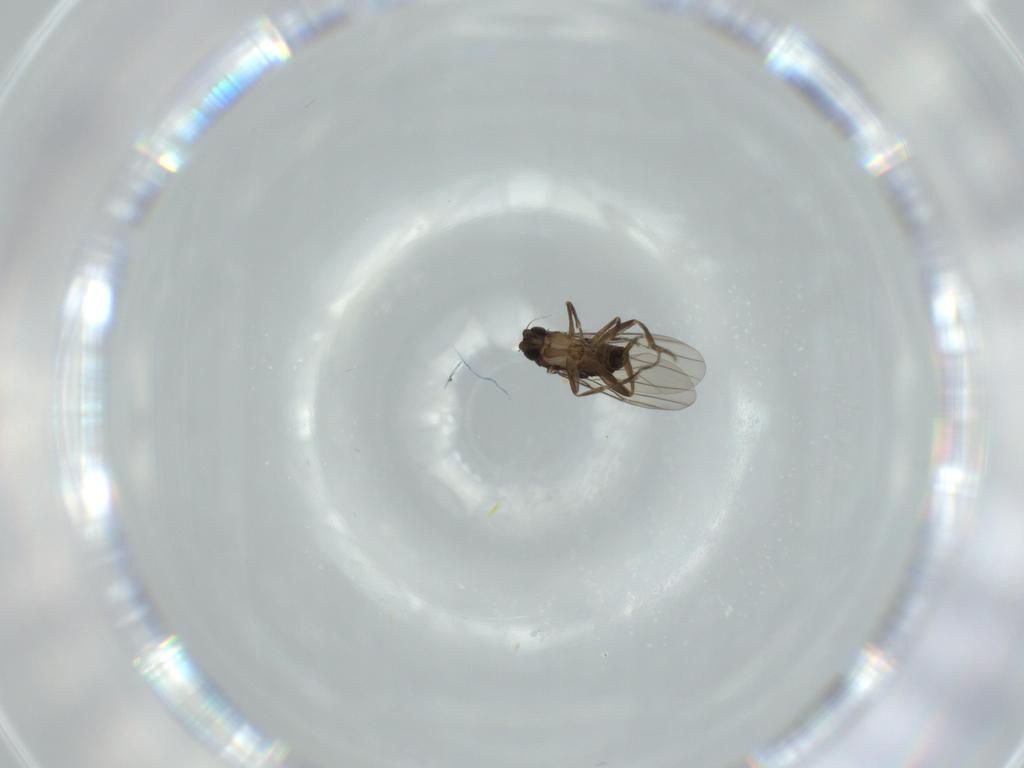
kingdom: Animalia
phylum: Arthropoda
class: Insecta
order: Diptera
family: Phoridae
